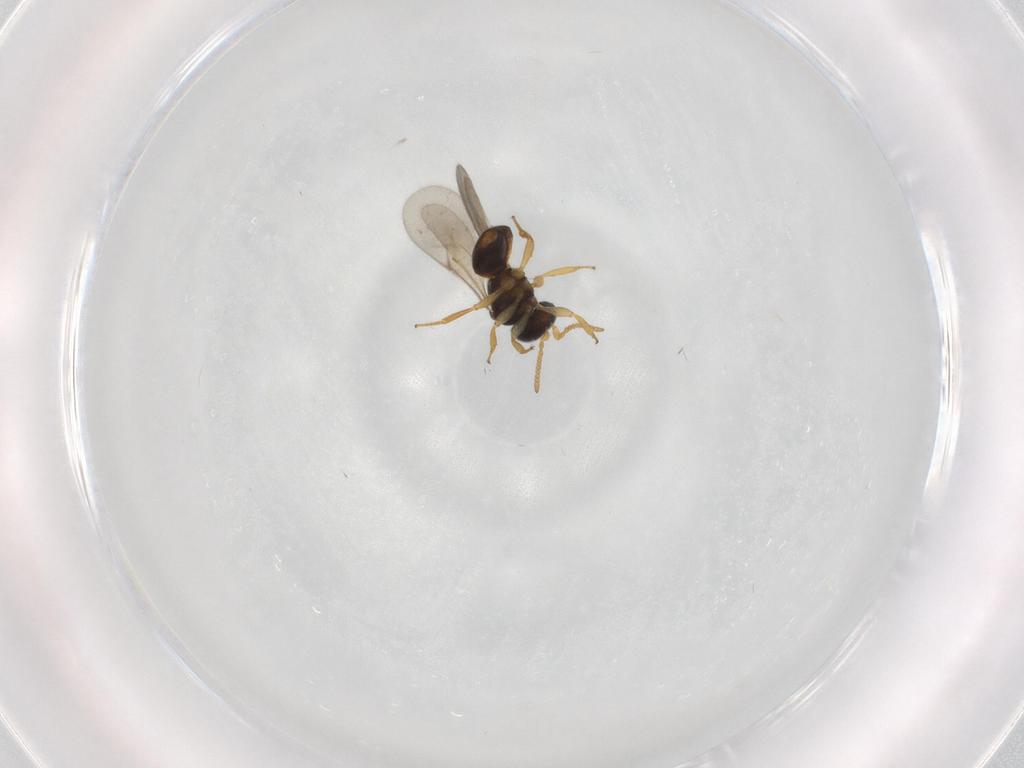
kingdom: Animalia
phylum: Arthropoda
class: Insecta
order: Hymenoptera
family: Scelionidae
